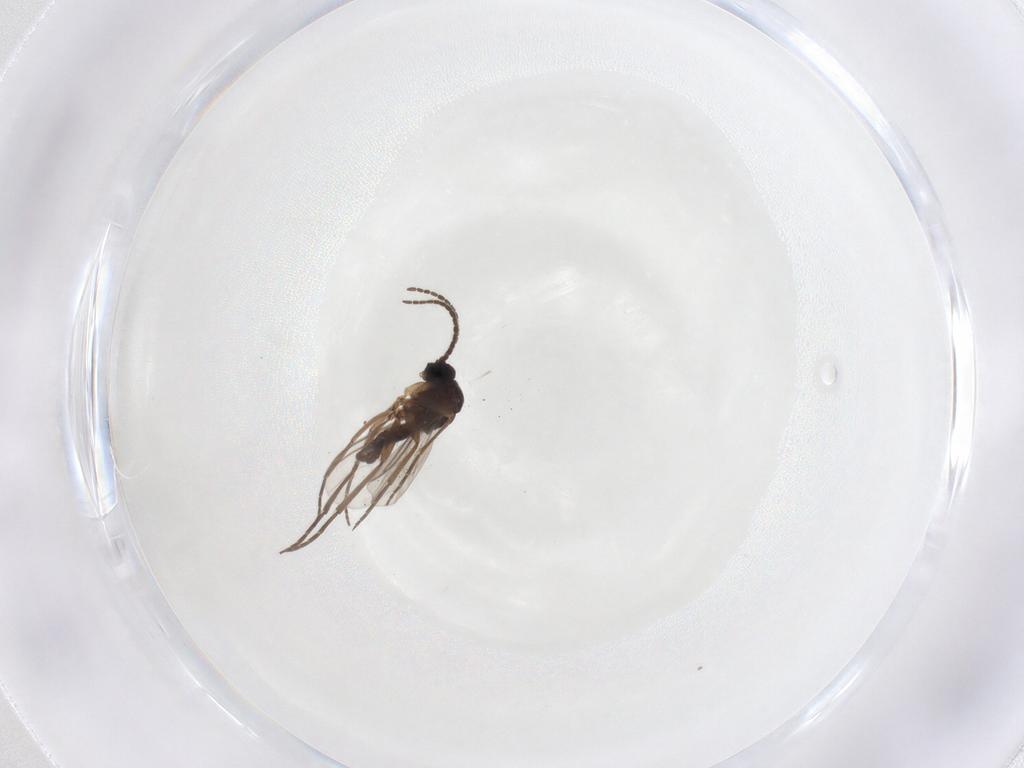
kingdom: Animalia
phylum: Arthropoda
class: Insecta
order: Diptera
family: Sciaridae
